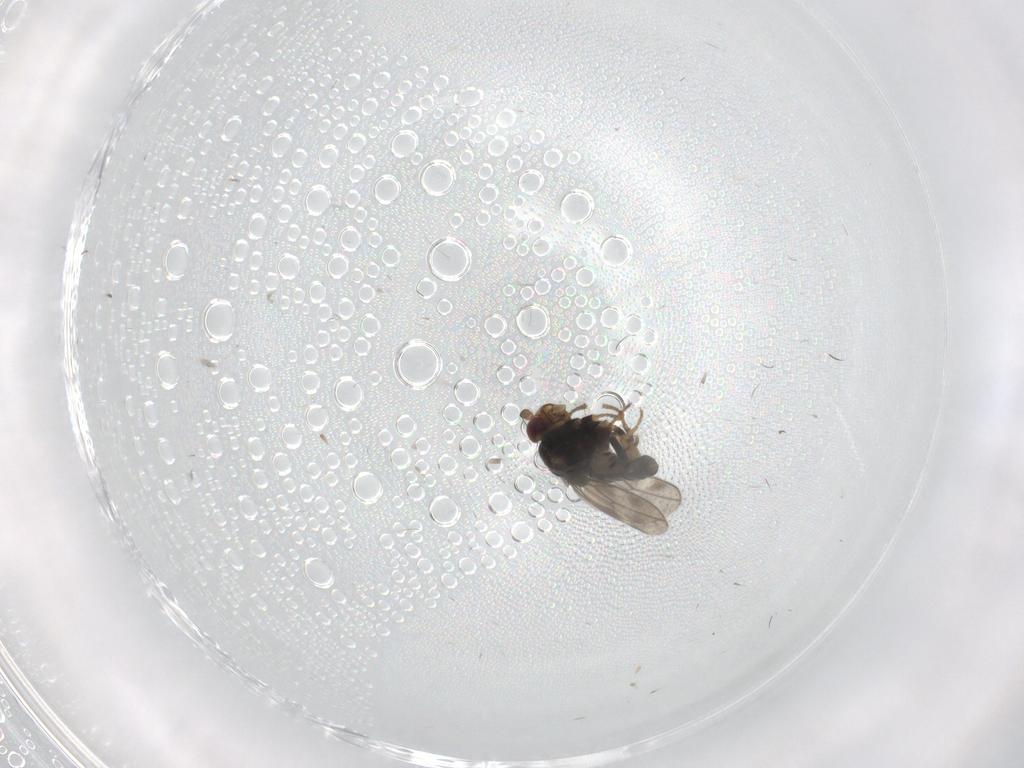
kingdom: Animalia
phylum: Arthropoda
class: Insecta
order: Diptera
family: Sphaeroceridae
